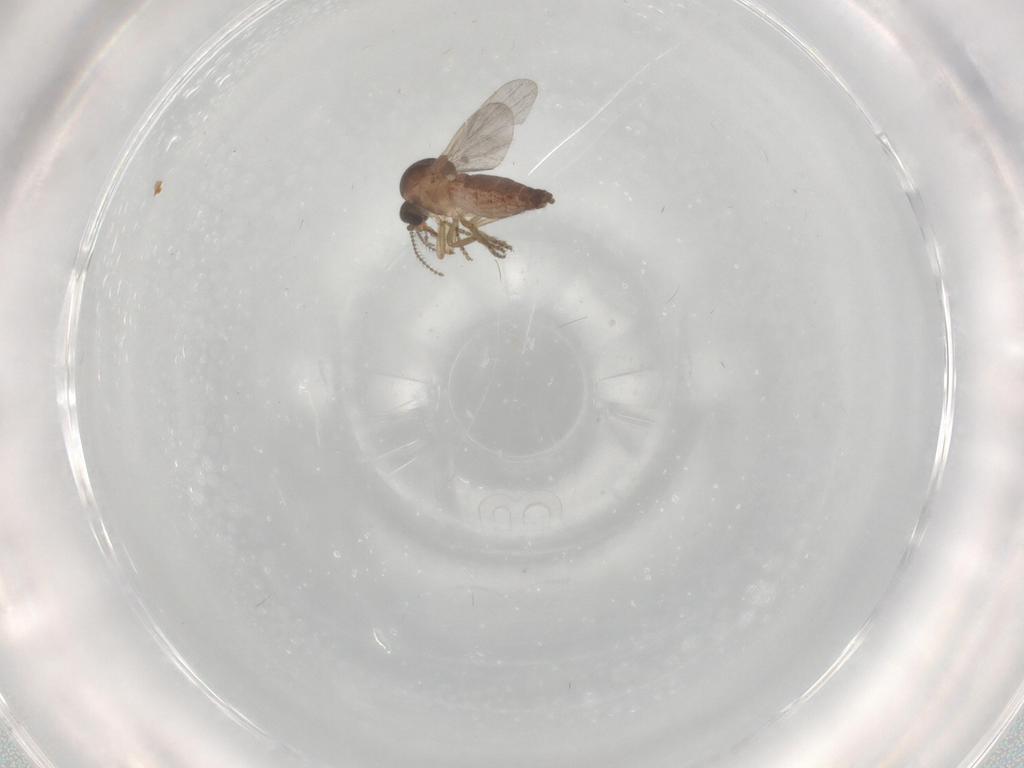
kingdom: Animalia
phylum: Arthropoda
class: Insecta
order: Diptera
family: Ceratopogonidae
